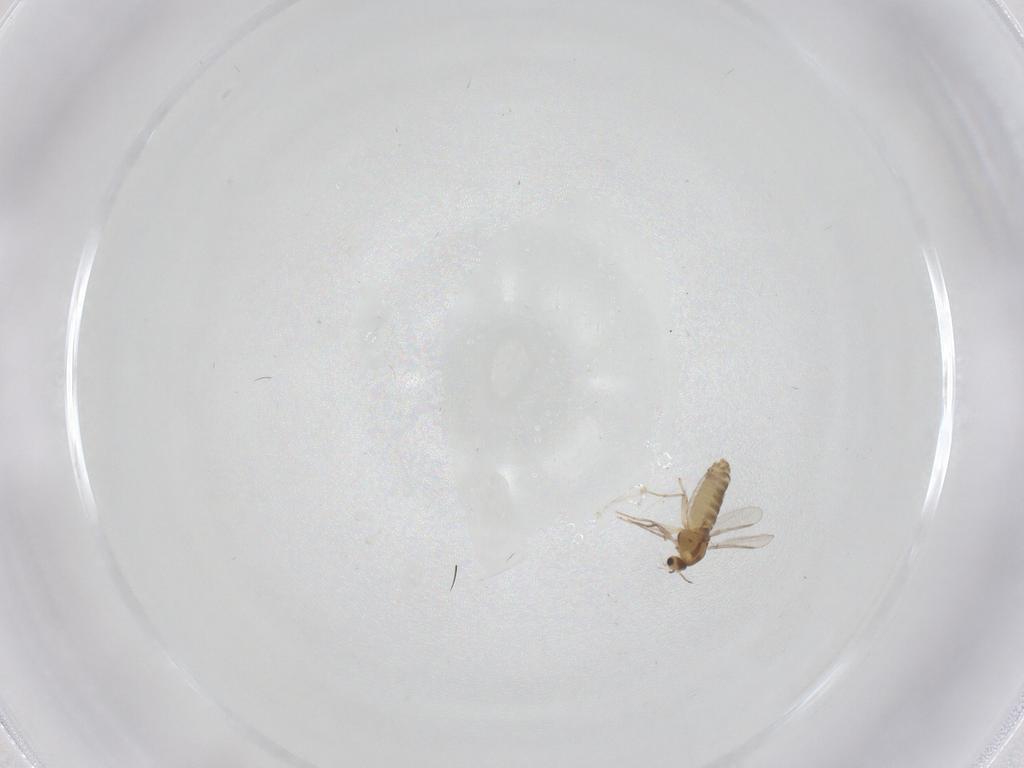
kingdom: Animalia
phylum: Arthropoda
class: Insecta
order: Diptera
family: Chironomidae
